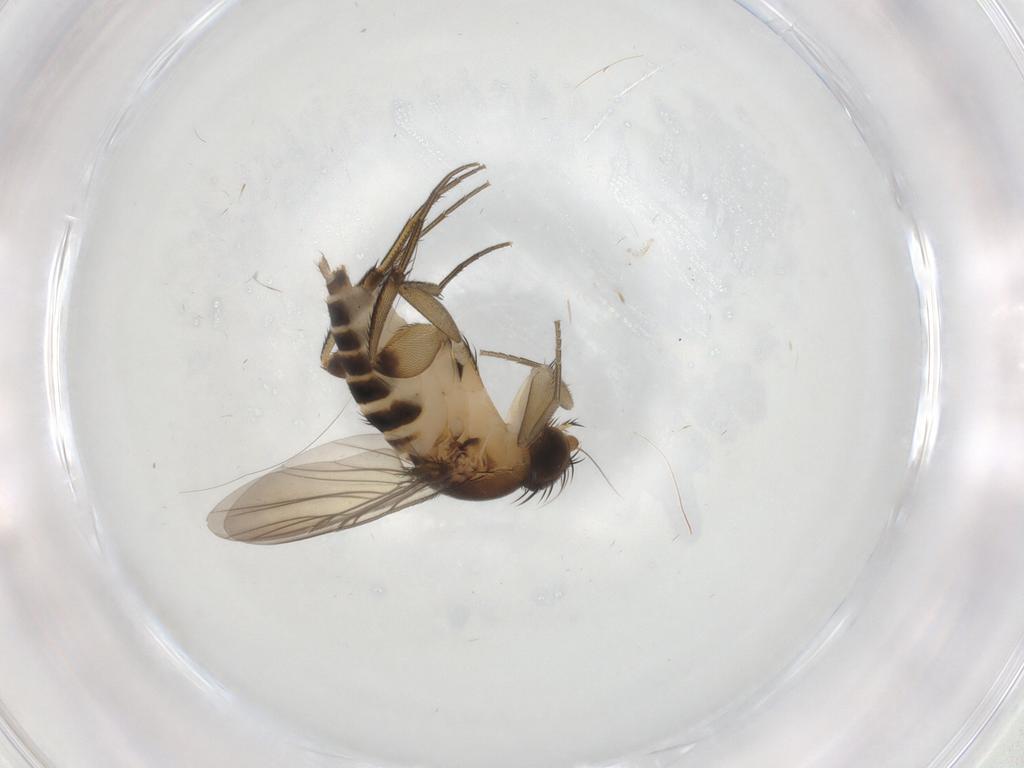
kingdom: Animalia
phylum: Arthropoda
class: Insecta
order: Diptera
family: Phoridae
